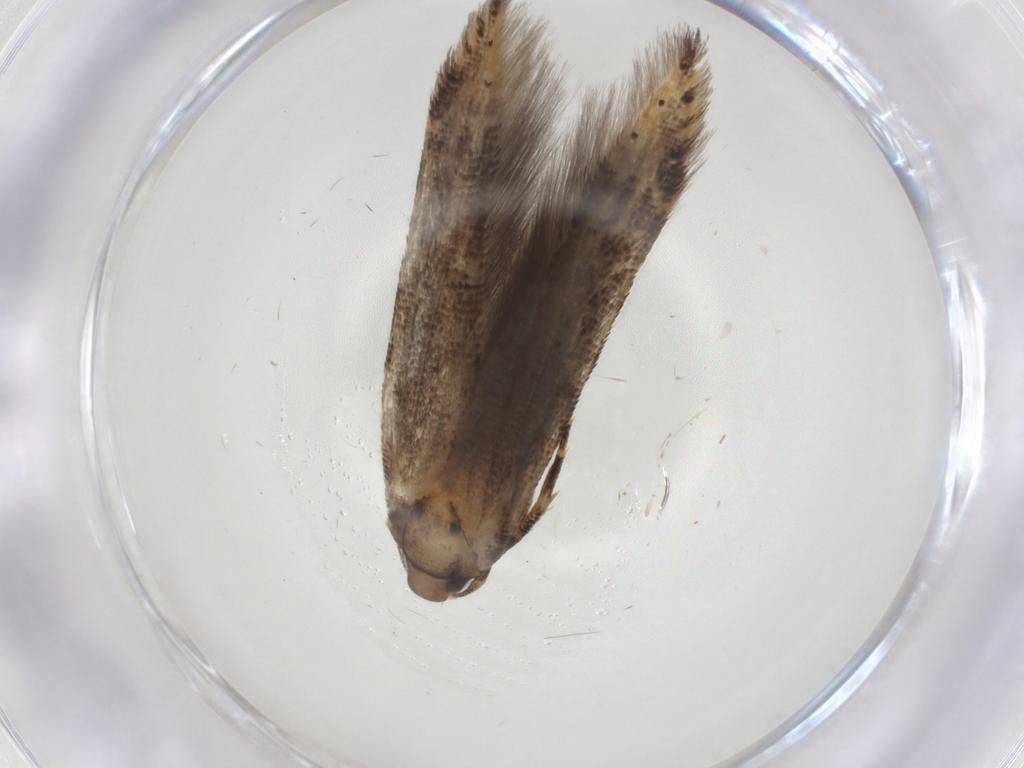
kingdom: Animalia
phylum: Arthropoda
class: Insecta
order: Lepidoptera
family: Gelechiidae
